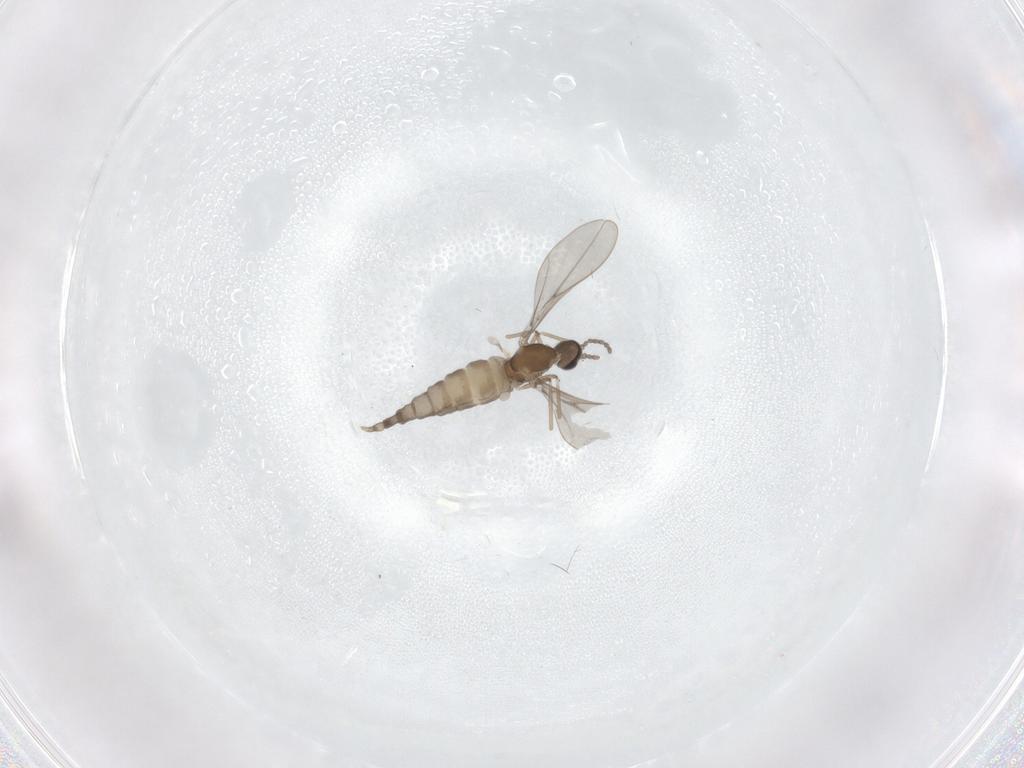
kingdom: Animalia
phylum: Arthropoda
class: Insecta
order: Diptera
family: Cecidomyiidae
